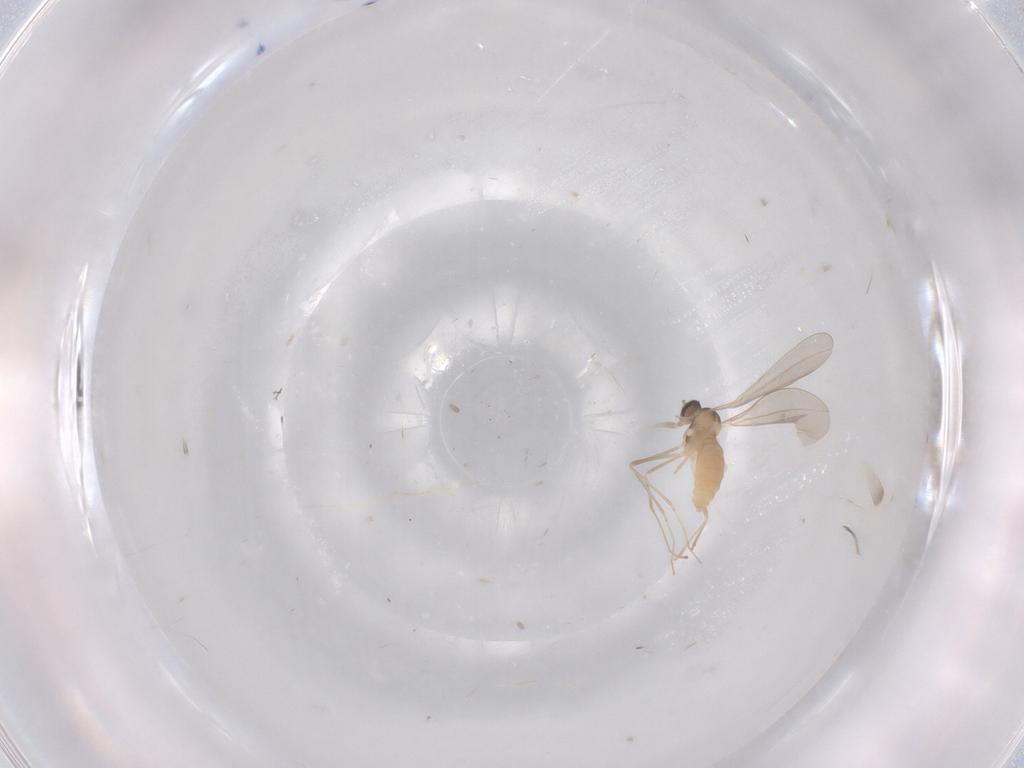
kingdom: Animalia
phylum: Arthropoda
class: Insecta
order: Diptera
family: Cecidomyiidae
